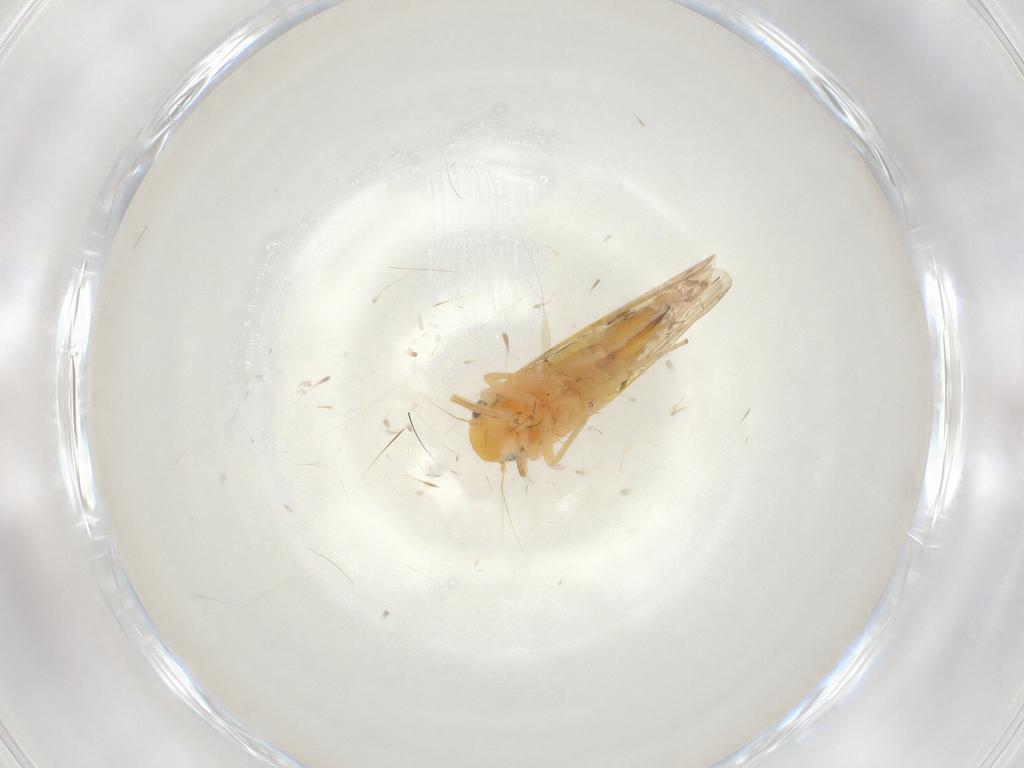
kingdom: Animalia
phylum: Arthropoda
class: Insecta
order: Hemiptera
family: Cicadellidae
